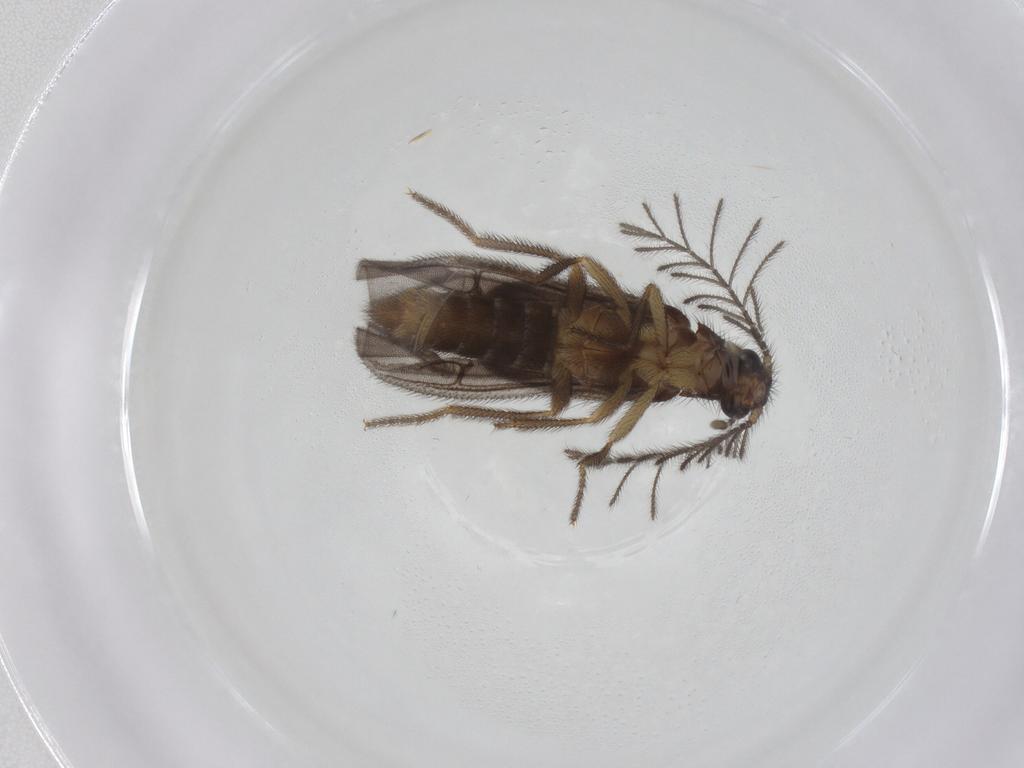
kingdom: Animalia
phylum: Arthropoda
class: Insecta
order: Coleoptera
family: Phengodidae
